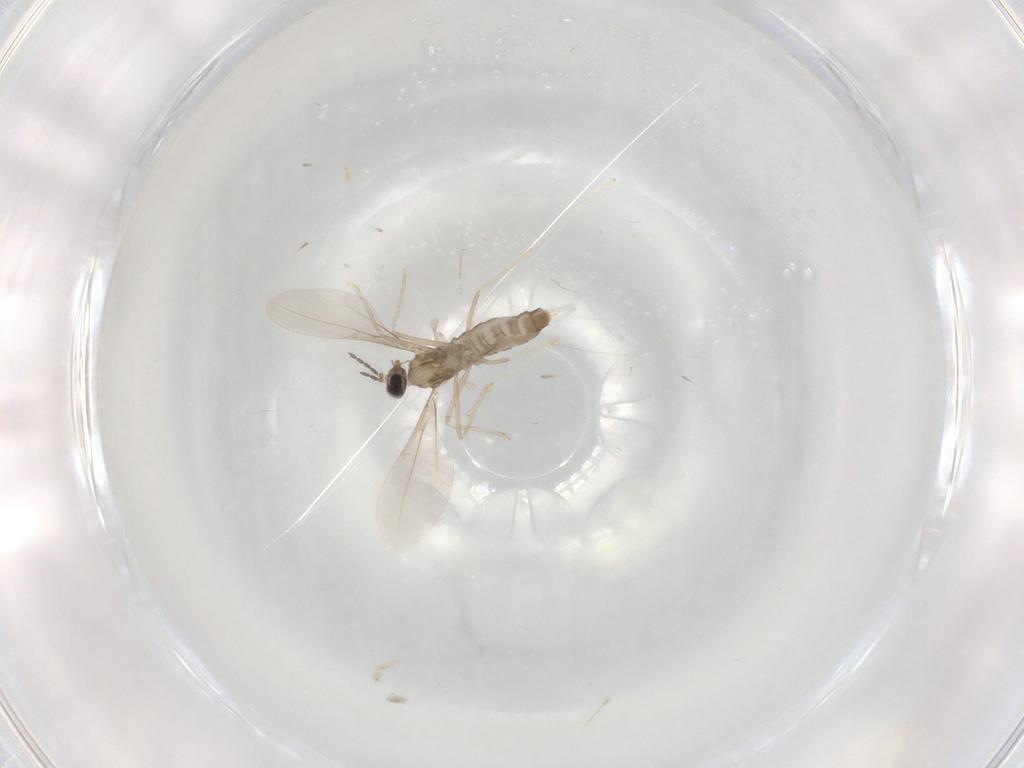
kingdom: Animalia
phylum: Arthropoda
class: Insecta
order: Diptera
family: Cecidomyiidae
